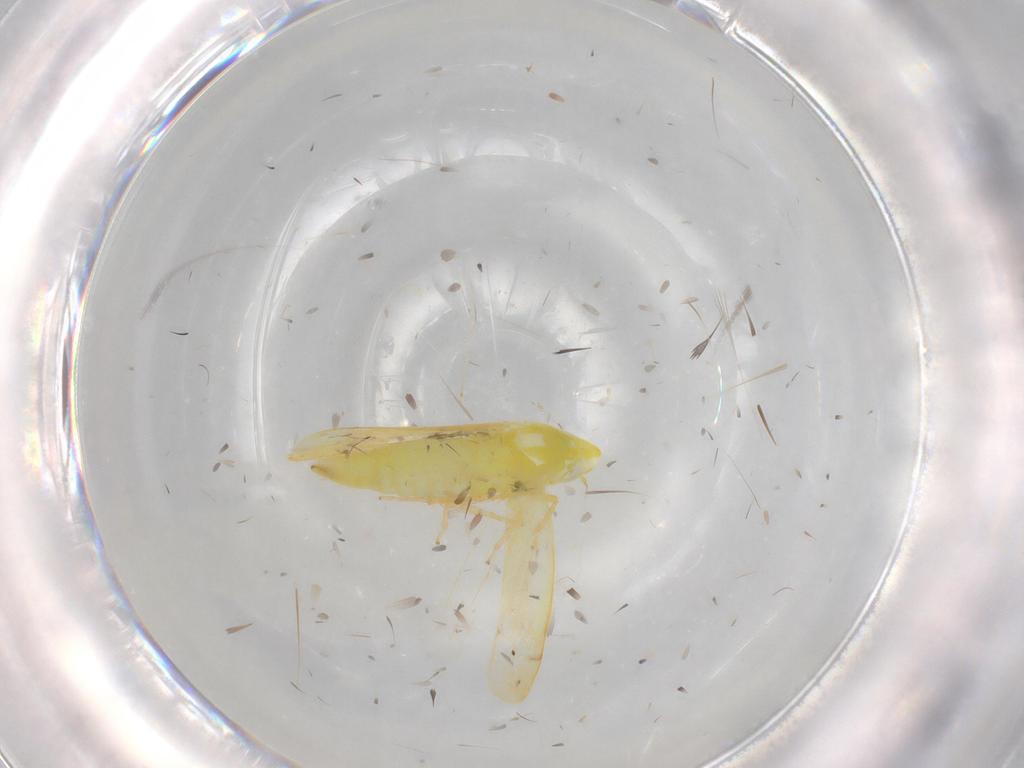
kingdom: Animalia
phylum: Arthropoda
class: Insecta
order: Hemiptera
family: Cicadellidae
